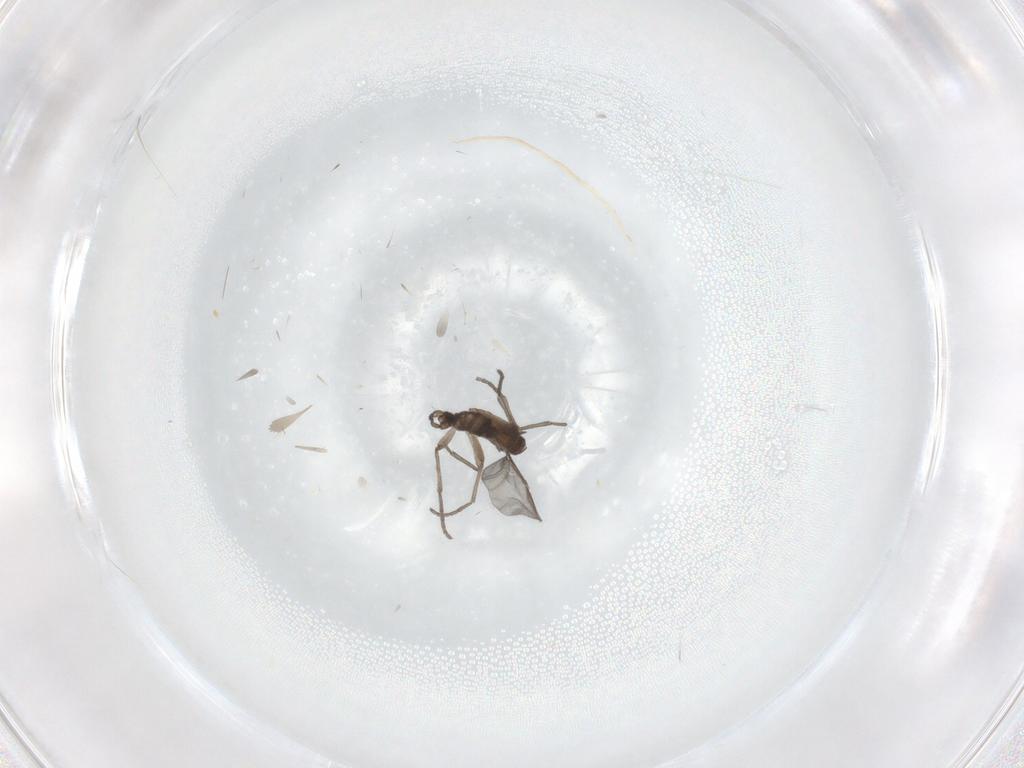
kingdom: Animalia
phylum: Arthropoda
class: Insecta
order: Diptera
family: Sciaridae
